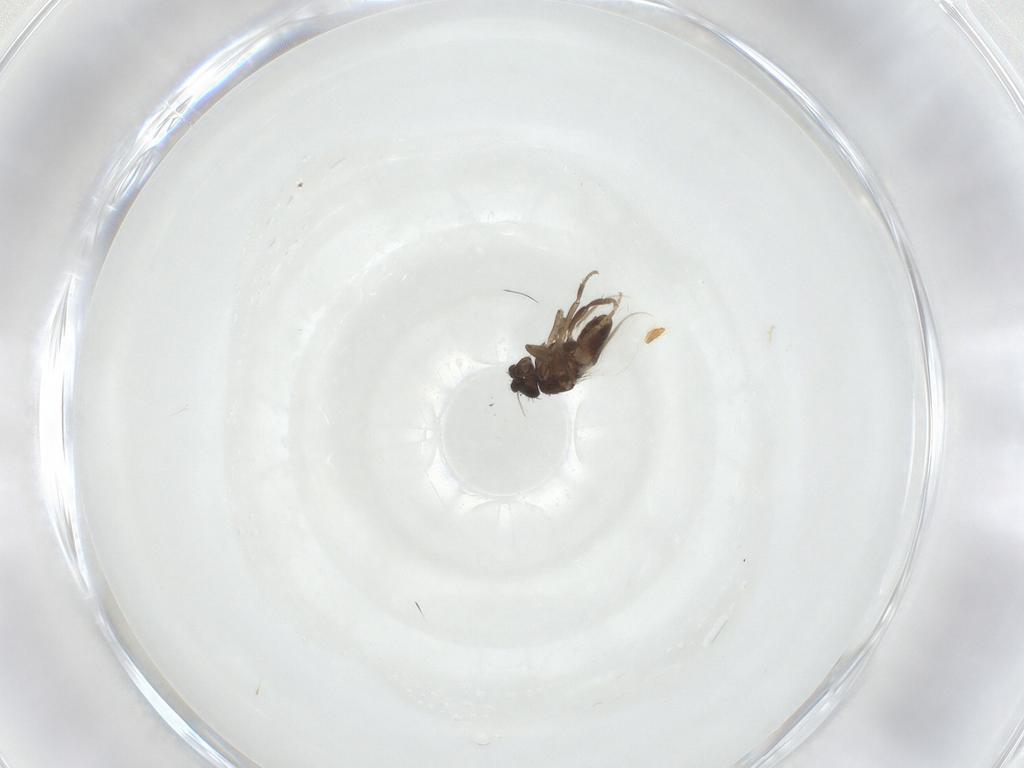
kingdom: Animalia
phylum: Arthropoda
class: Insecta
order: Diptera
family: Sphaeroceridae
